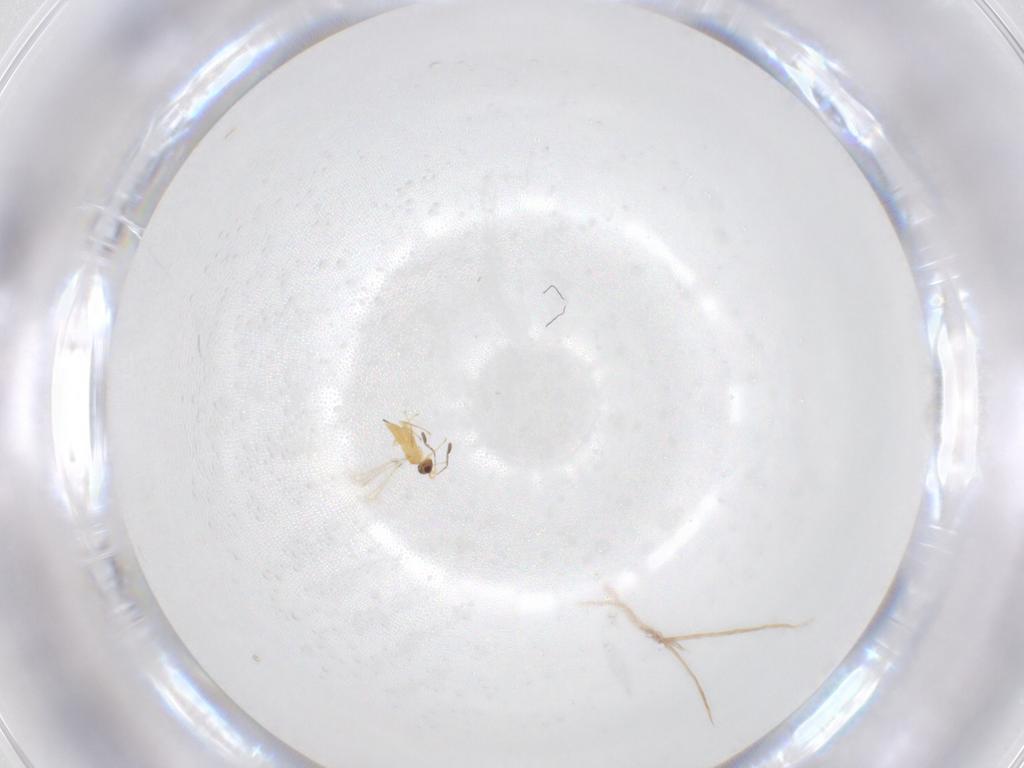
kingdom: Animalia
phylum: Arthropoda
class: Insecta
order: Hymenoptera
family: Mymaridae
